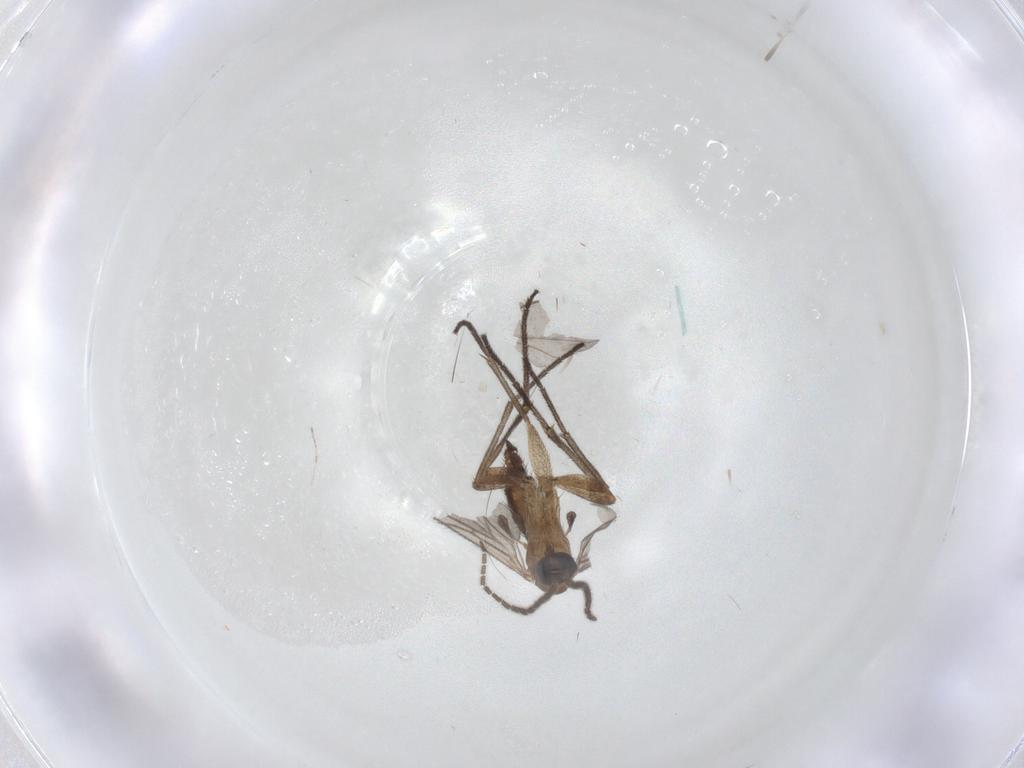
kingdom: Animalia
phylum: Arthropoda
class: Insecta
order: Diptera
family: Sciaridae
